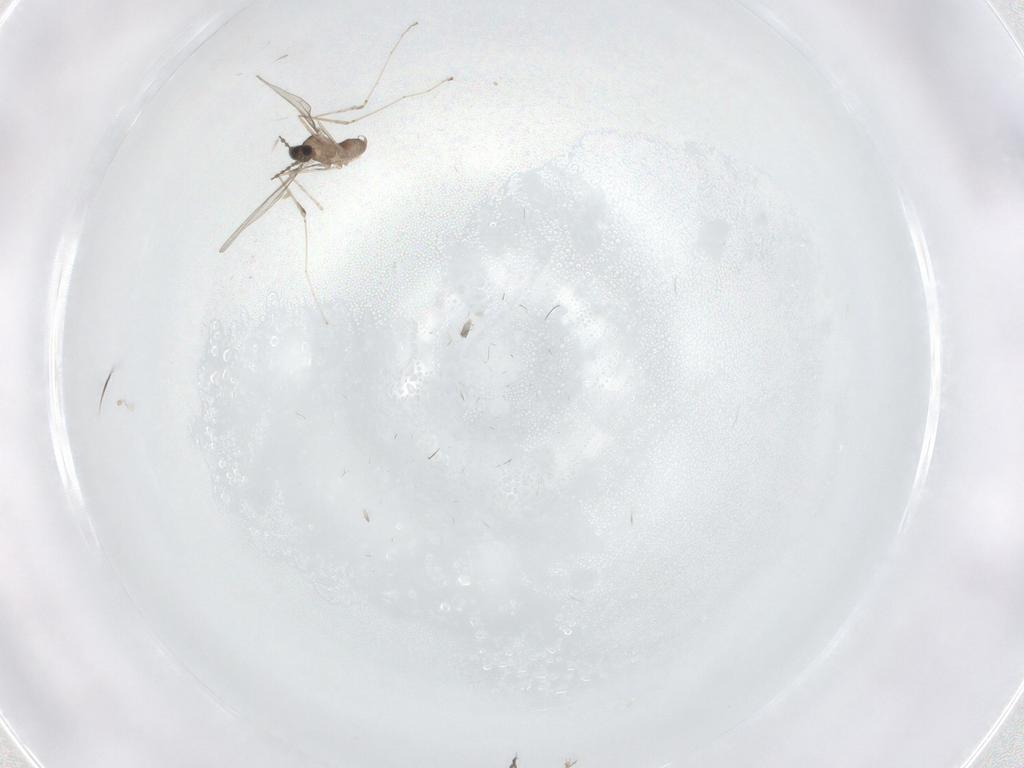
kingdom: Animalia
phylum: Arthropoda
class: Insecta
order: Diptera
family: Cecidomyiidae
